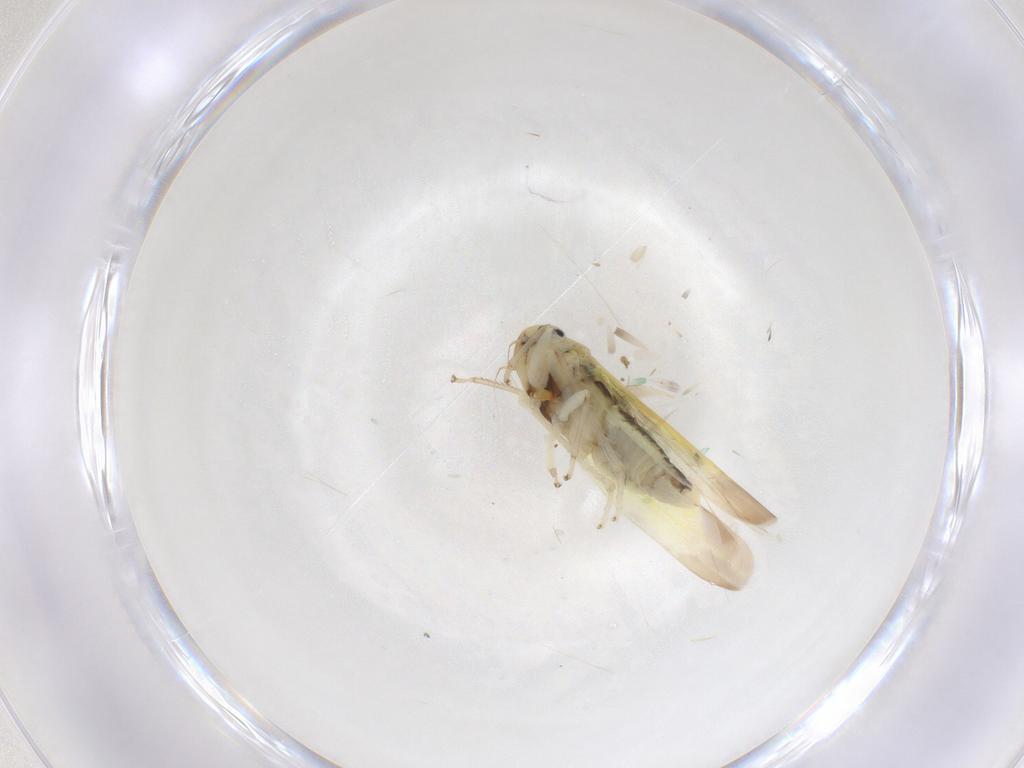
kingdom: Animalia
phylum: Arthropoda
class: Insecta
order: Hemiptera
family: Cicadellidae
